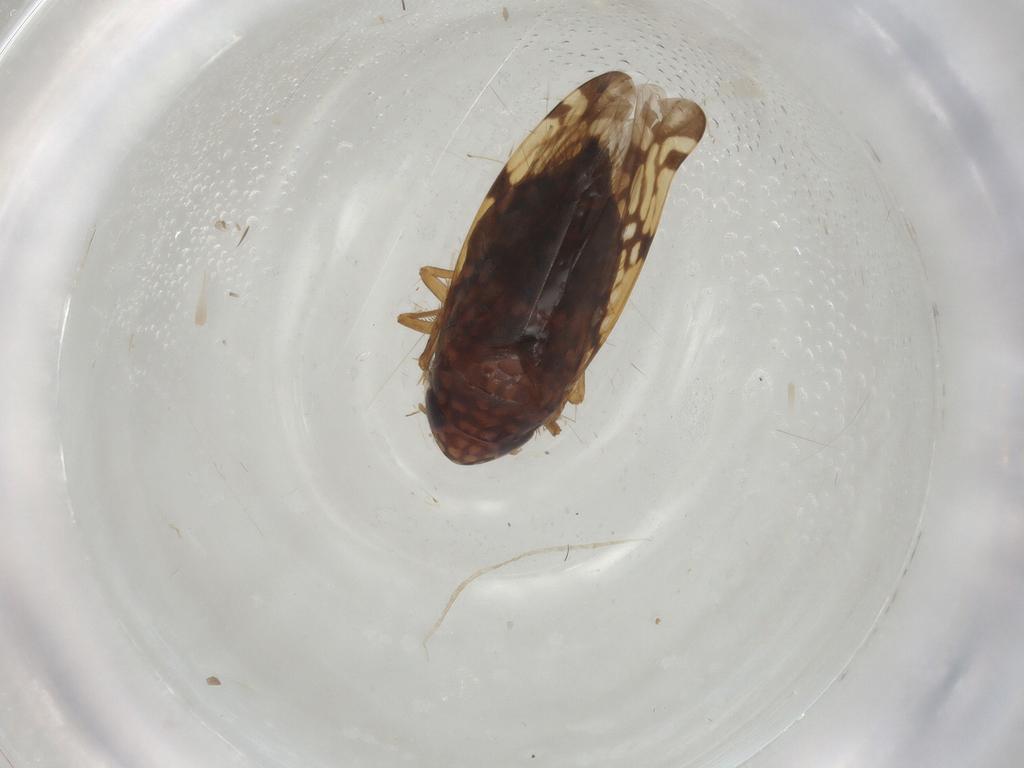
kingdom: Animalia
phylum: Arthropoda
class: Insecta
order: Hemiptera
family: Cicadellidae
